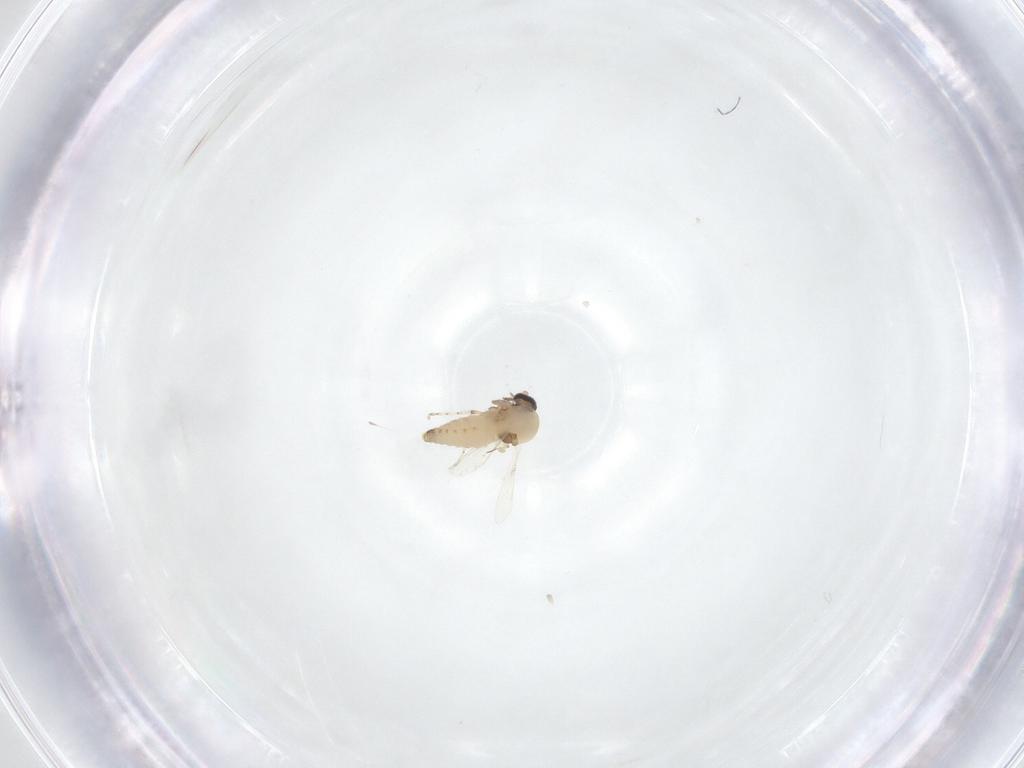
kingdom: Animalia
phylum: Arthropoda
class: Insecta
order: Diptera
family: Ceratopogonidae
